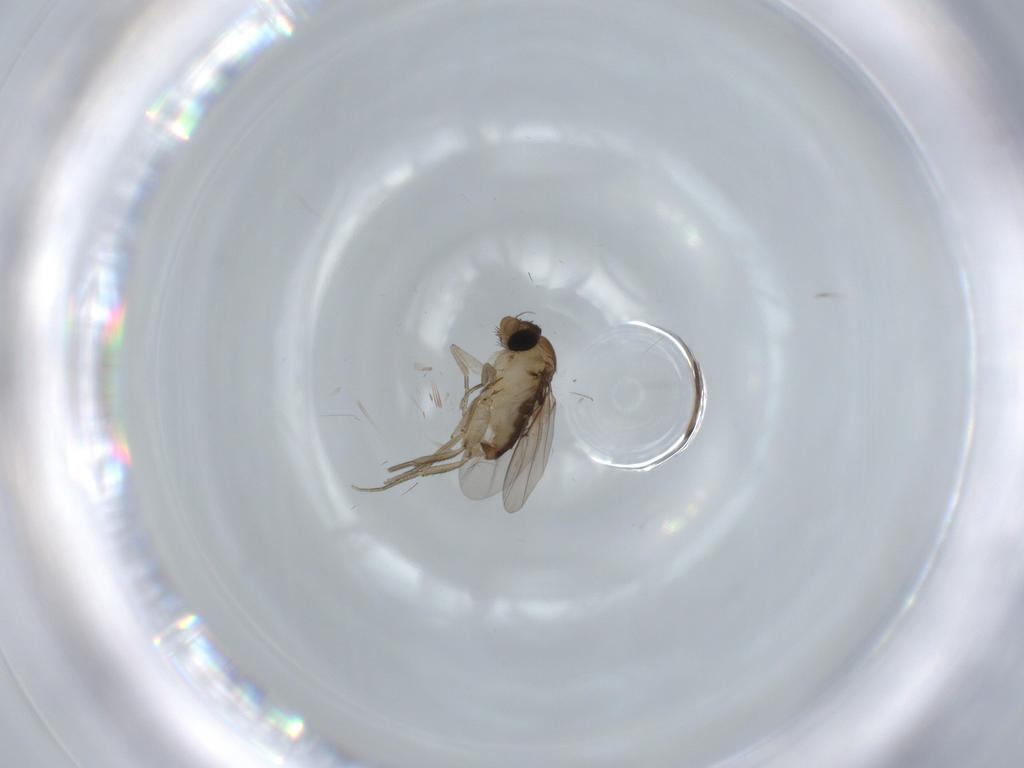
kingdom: Animalia
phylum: Arthropoda
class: Insecta
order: Diptera
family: Phoridae
